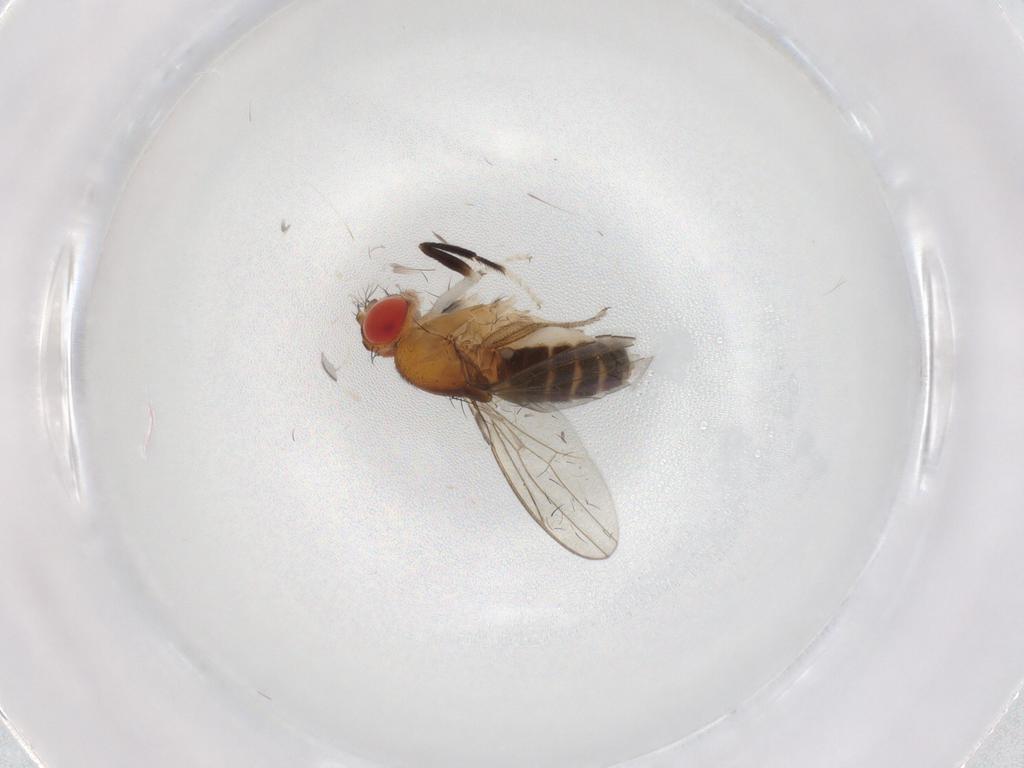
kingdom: Animalia
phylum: Arthropoda
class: Insecta
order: Diptera
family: Drosophilidae
